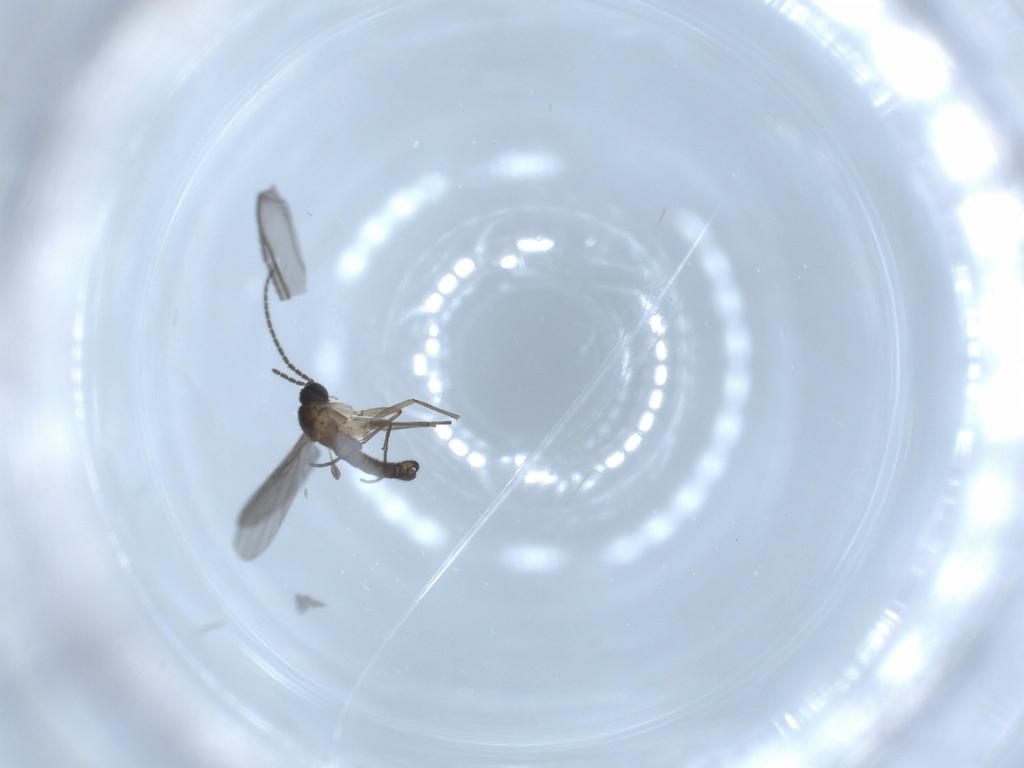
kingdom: Animalia
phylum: Arthropoda
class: Insecta
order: Diptera
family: Sciaridae
